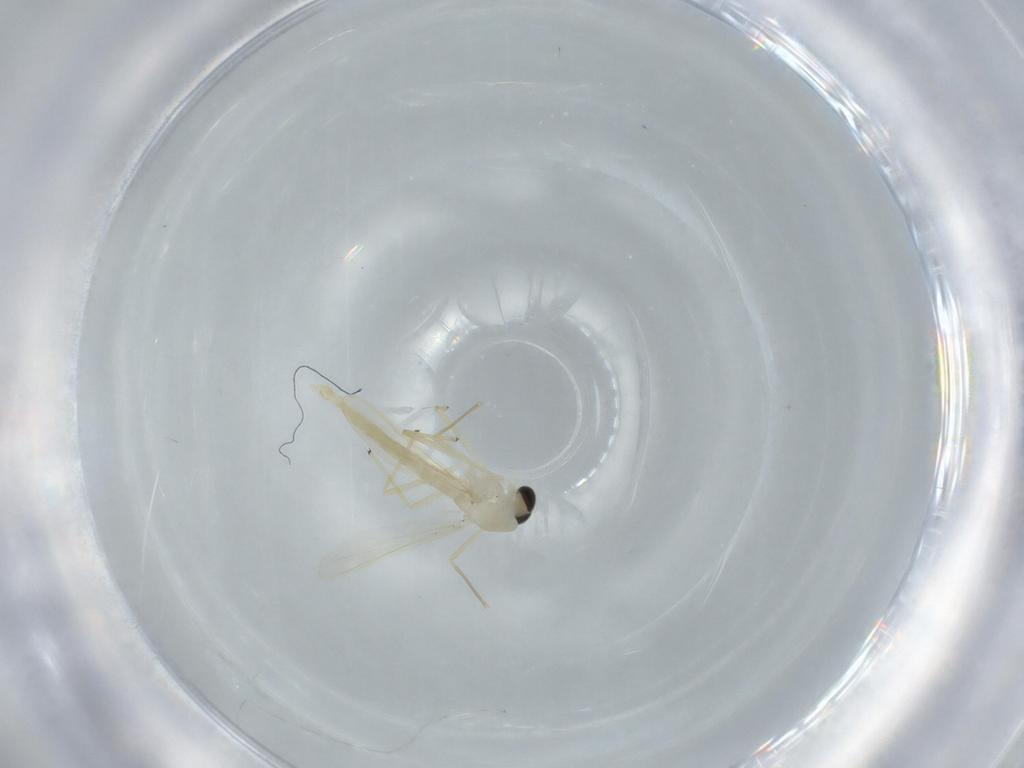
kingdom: Animalia
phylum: Arthropoda
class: Insecta
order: Diptera
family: Chironomidae
